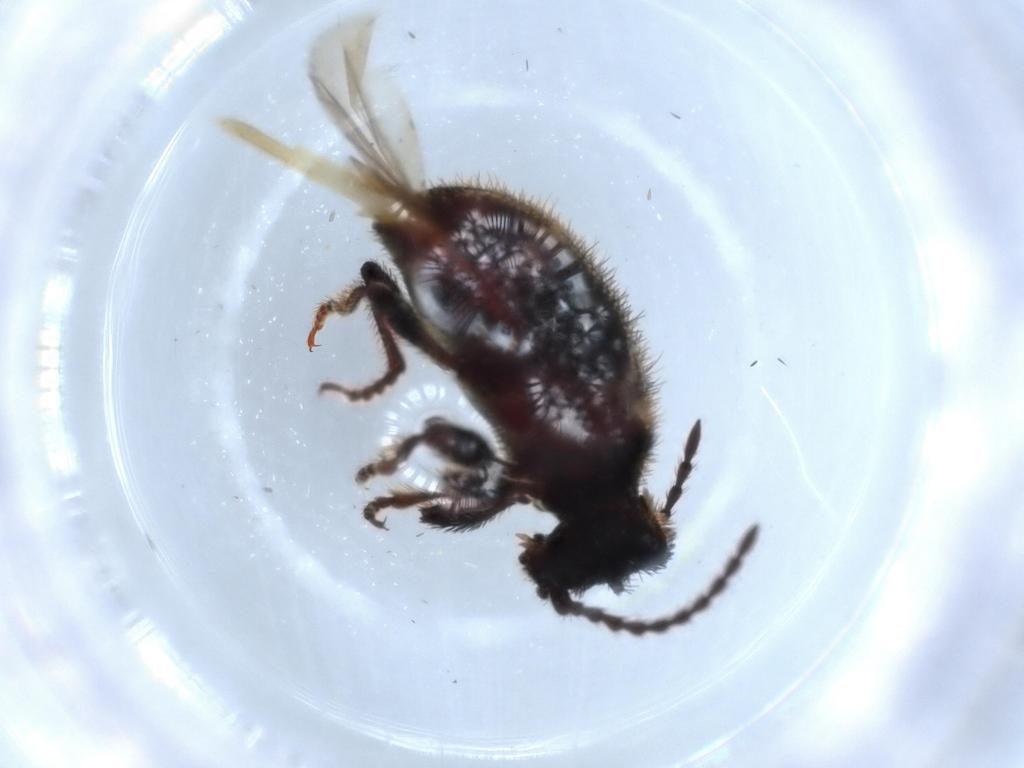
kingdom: Animalia
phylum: Arthropoda
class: Insecta
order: Coleoptera
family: Ptinidae
